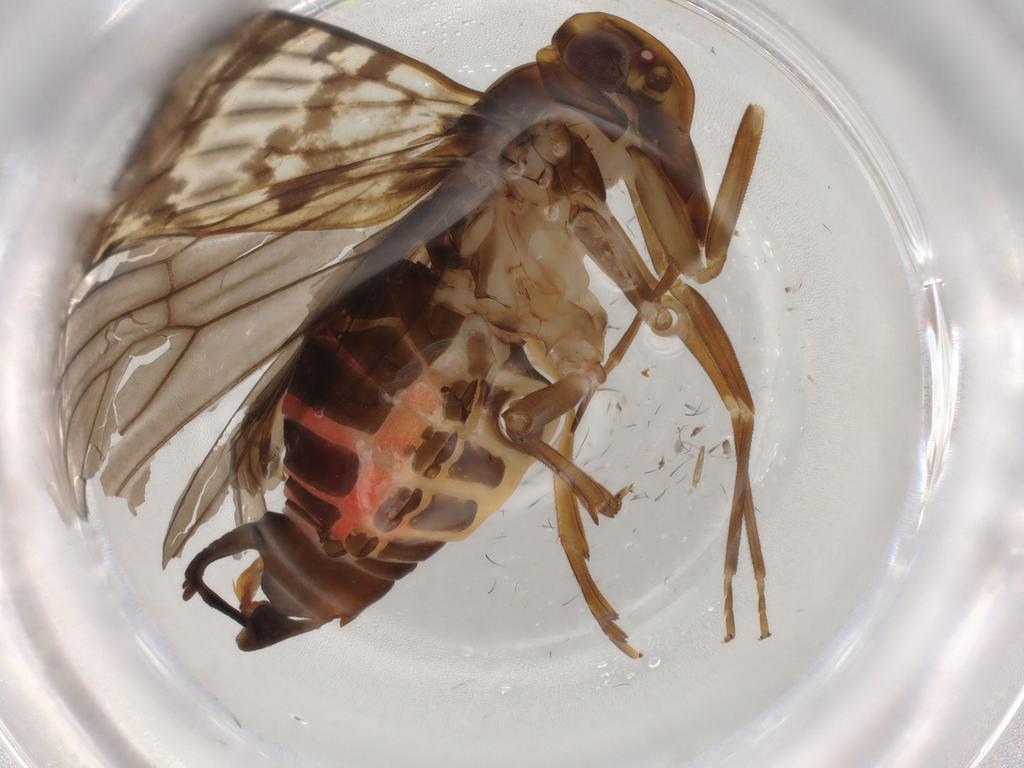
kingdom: Animalia
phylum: Arthropoda
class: Insecta
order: Hemiptera
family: Cixiidae
